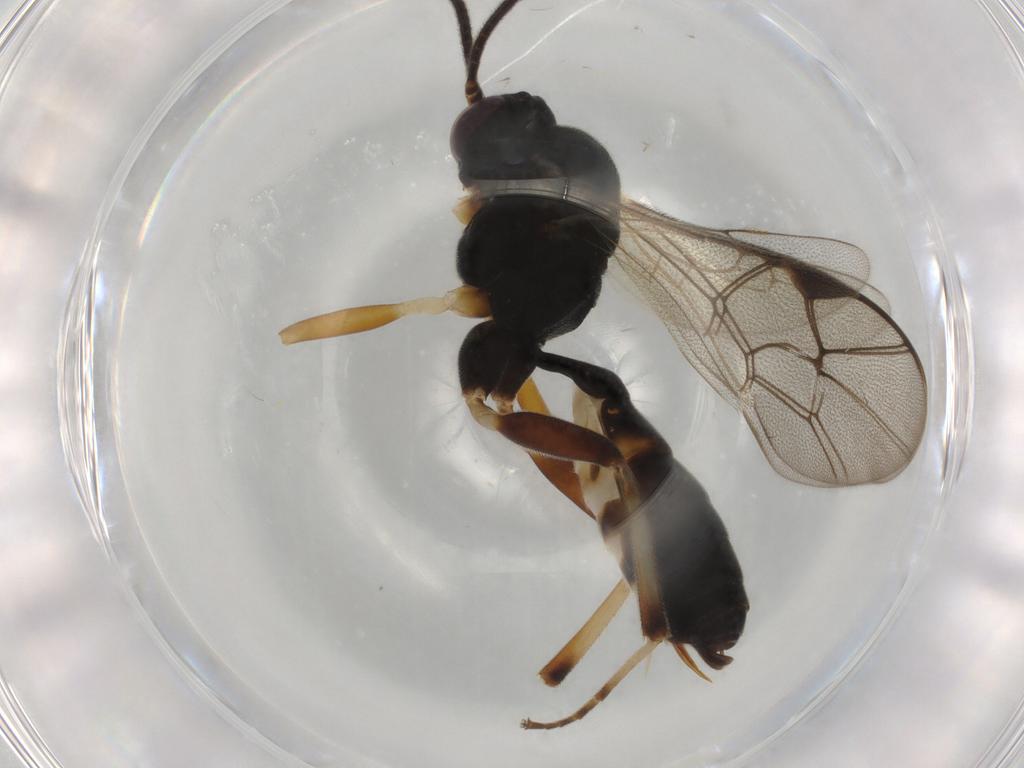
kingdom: Animalia
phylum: Arthropoda
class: Insecta
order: Hymenoptera
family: Ichneumonidae
